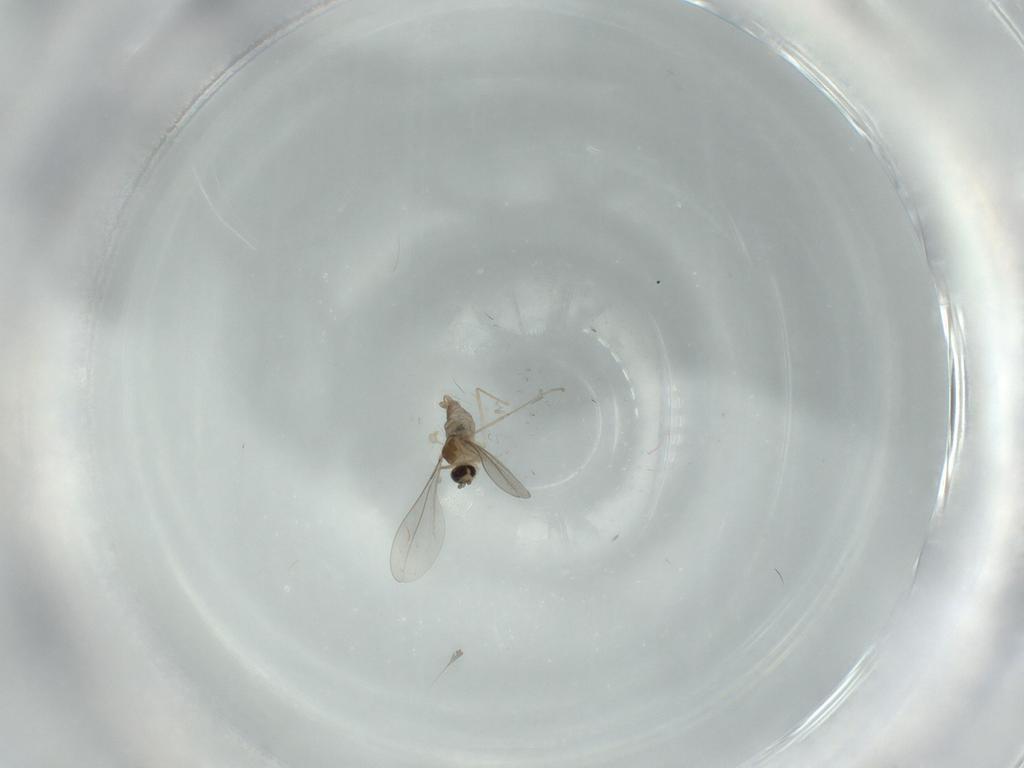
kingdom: Animalia
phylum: Arthropoda
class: Insecta
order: Diptera
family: Cecidomyiidae
